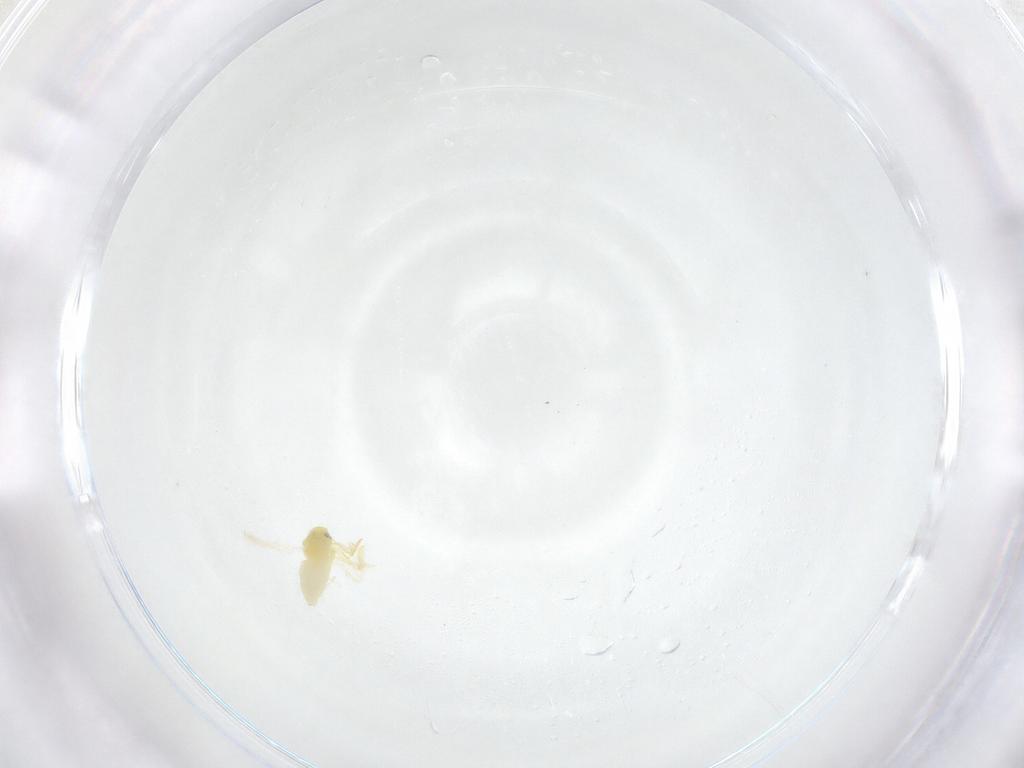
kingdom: Animalia
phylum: Arthropoda
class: Insecta
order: Hemiptera
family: Aleyrodidae
